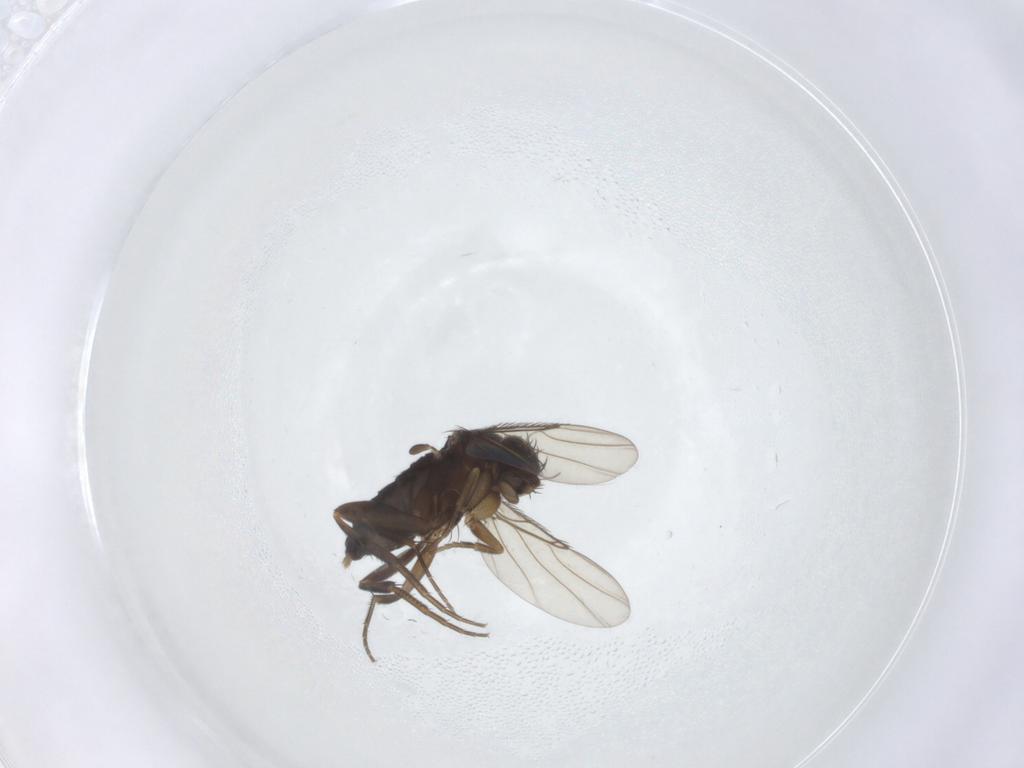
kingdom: Animalia
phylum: Arthropoda
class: Insecta
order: Diptera
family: Phoridae
